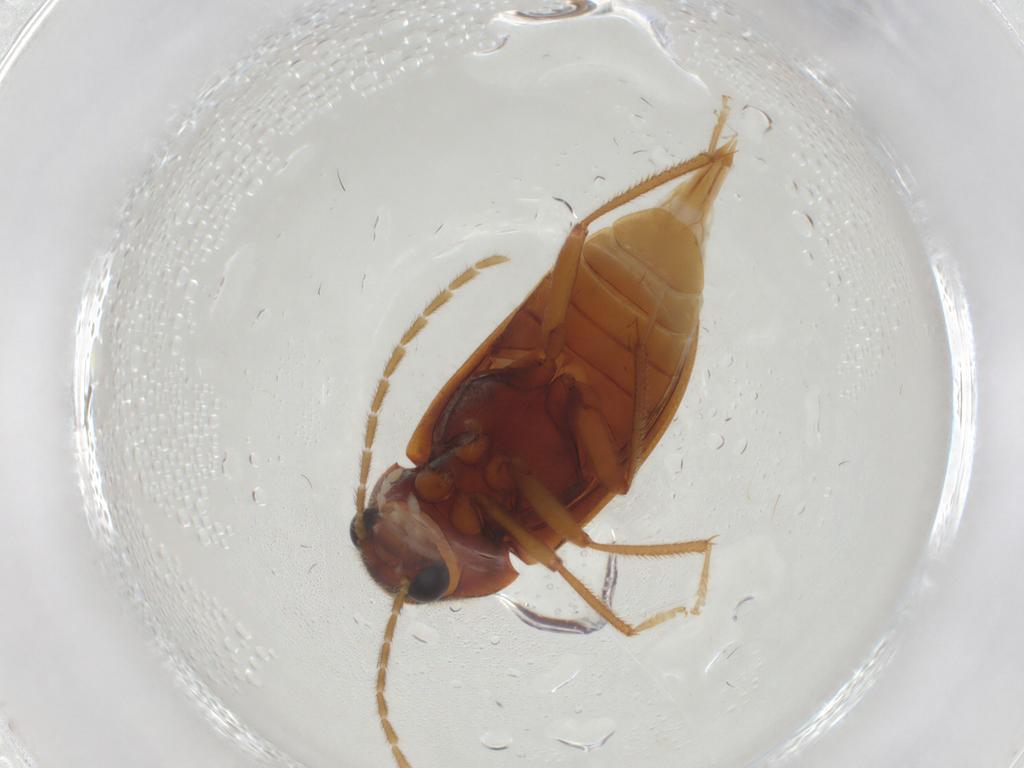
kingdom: Animalia
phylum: Arthropoda
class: Insecta
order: Coleoptera
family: Ptilodactylidae
